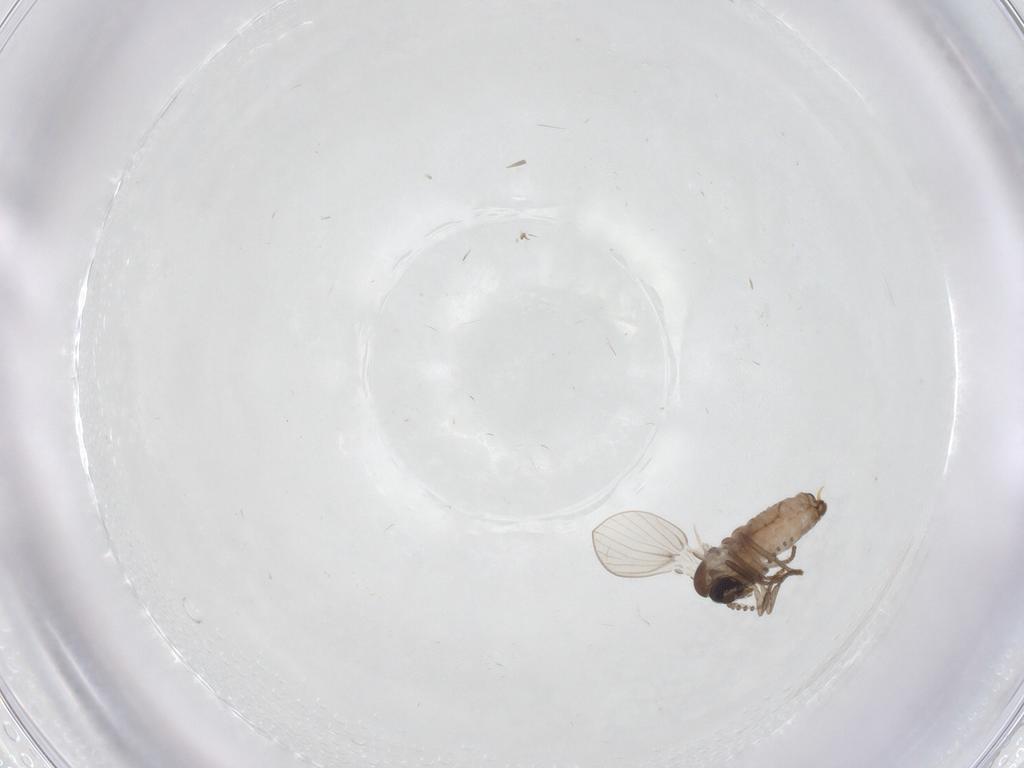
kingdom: Animalia
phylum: Arthropoda
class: Insecta
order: Diptera
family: Psychodidae
